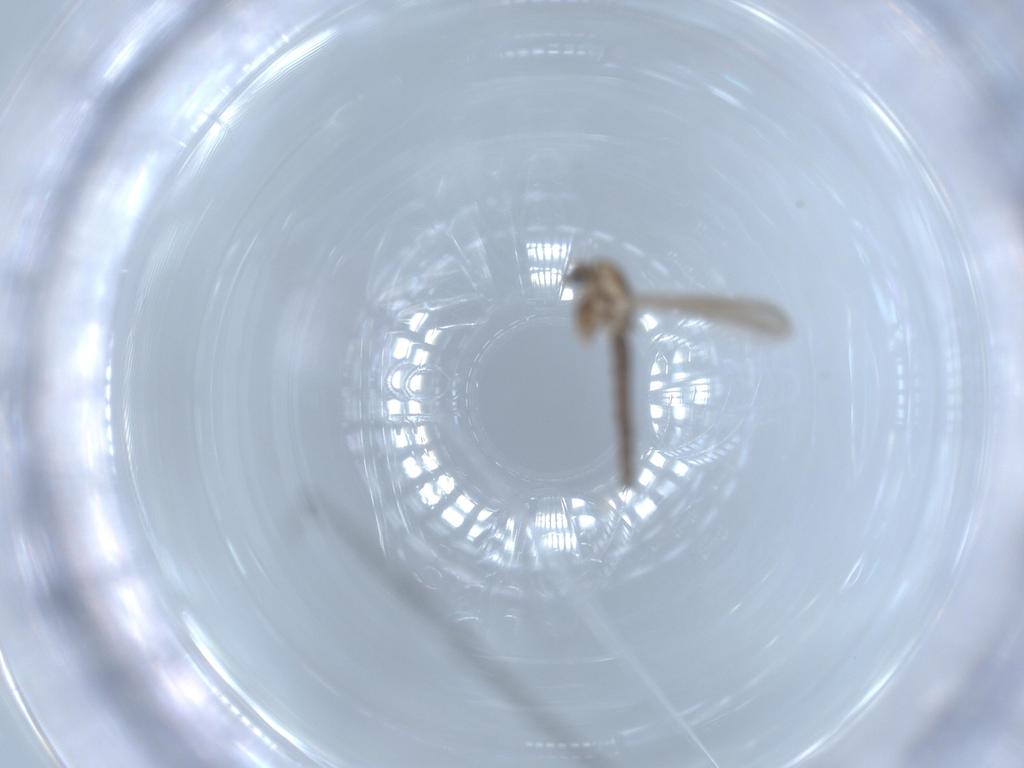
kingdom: Animalia
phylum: Arthropoda
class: Insecta
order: Diptera
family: Chironomidae
